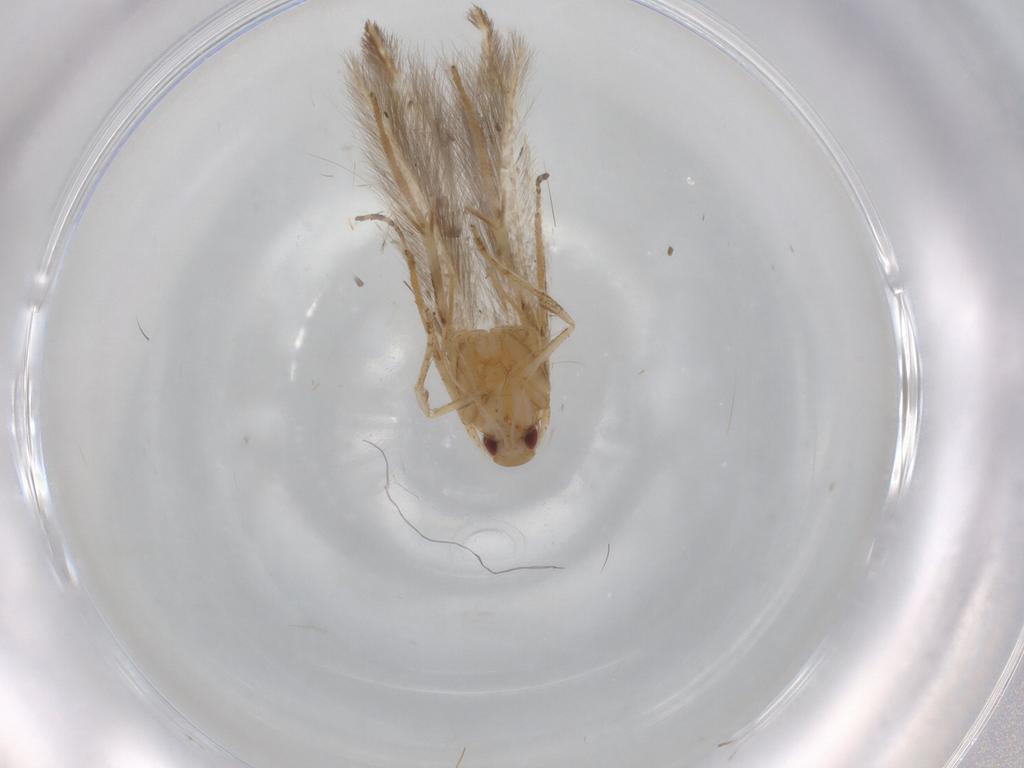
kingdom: Animalia
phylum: Arthropoda
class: Insecta
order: Lepidoptera
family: Cosmopterigidae
